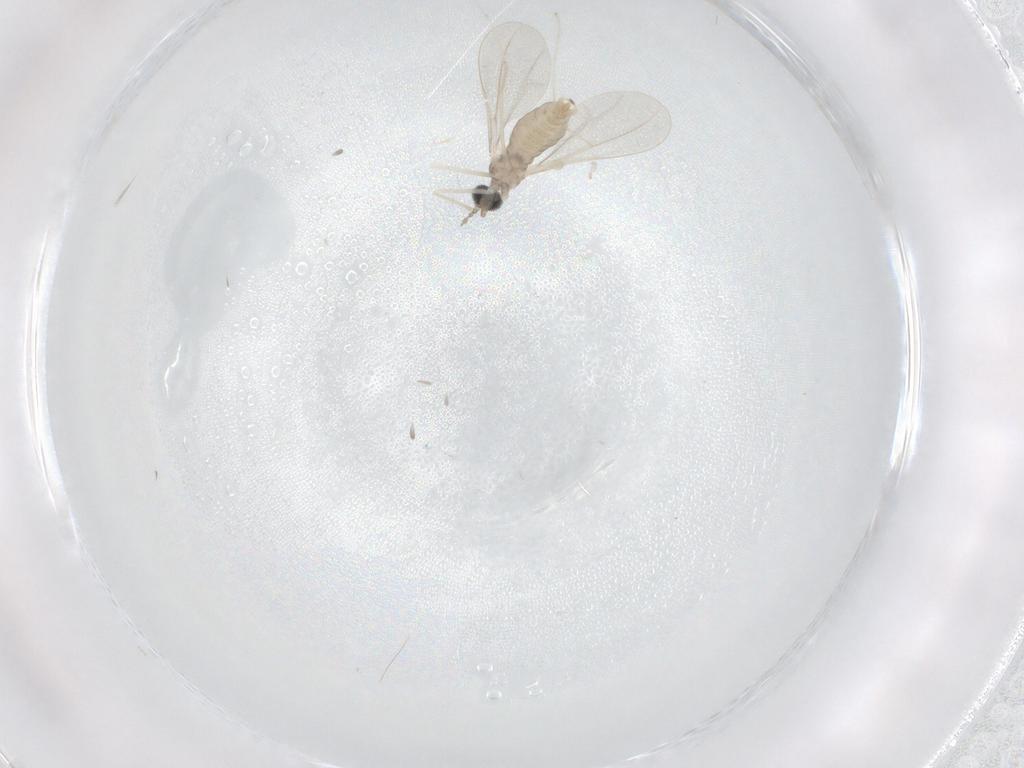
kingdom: Animalia
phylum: Arthropoda
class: Insecta
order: Diptera
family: Cecidomyiidae
